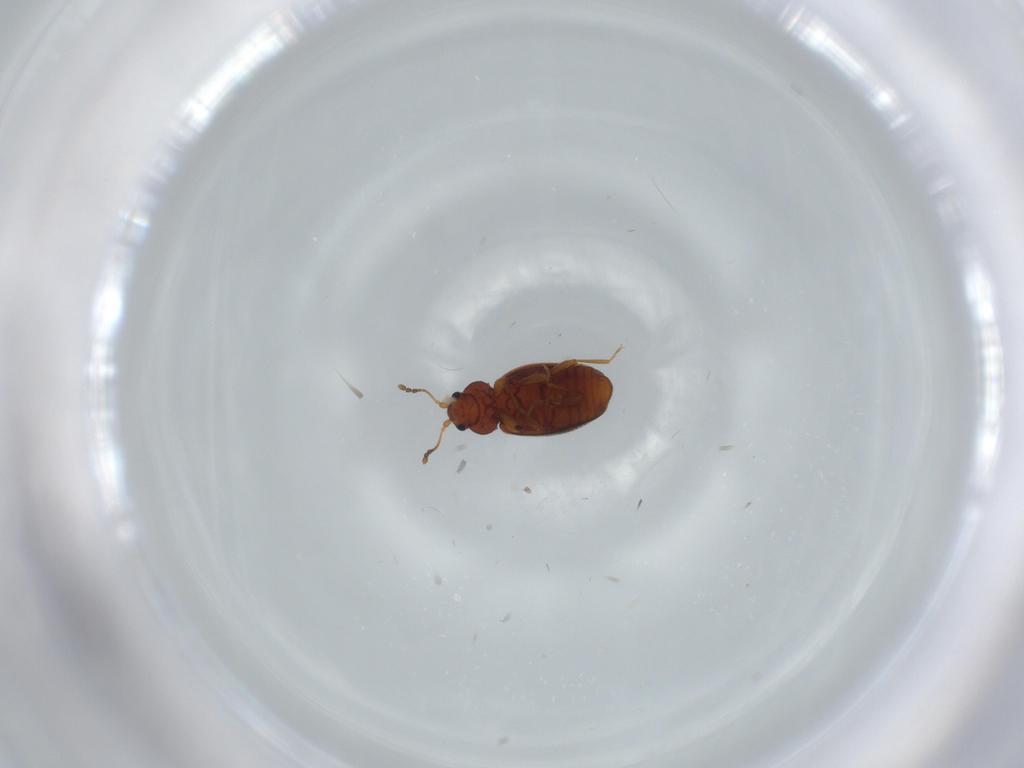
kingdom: Animalia
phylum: Arthropoda
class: Insecta
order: Coleoptera
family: Latridiidae
